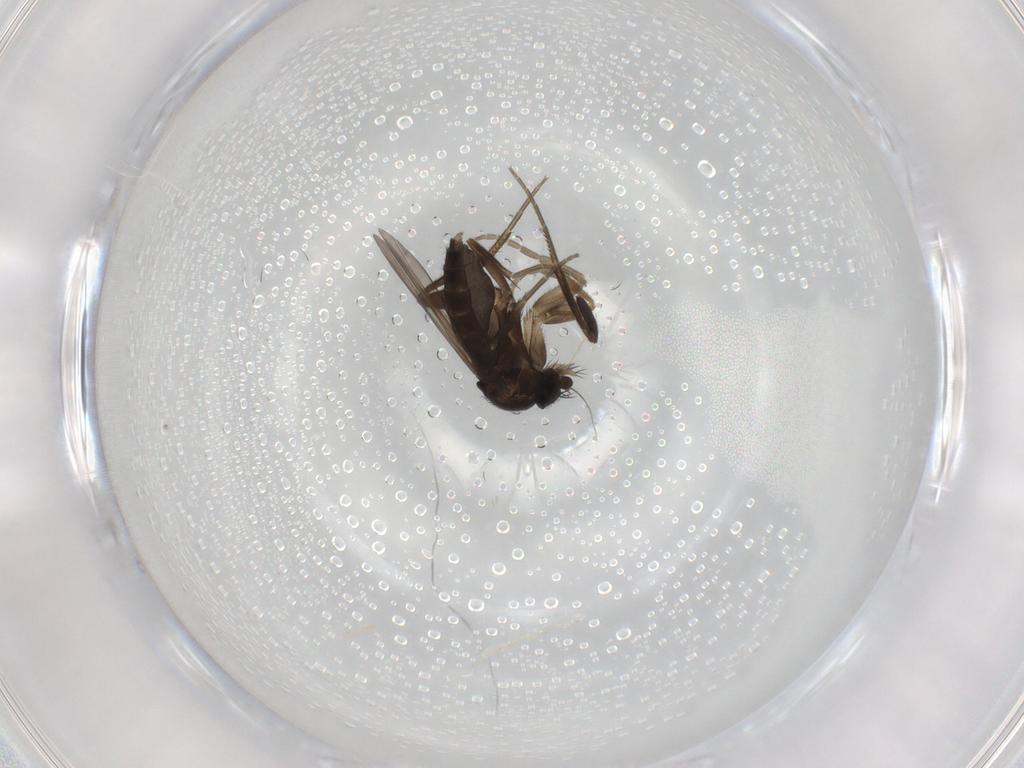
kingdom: Animalia
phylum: Arthropoda
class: Insecta
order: Diptera
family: Phoridae
